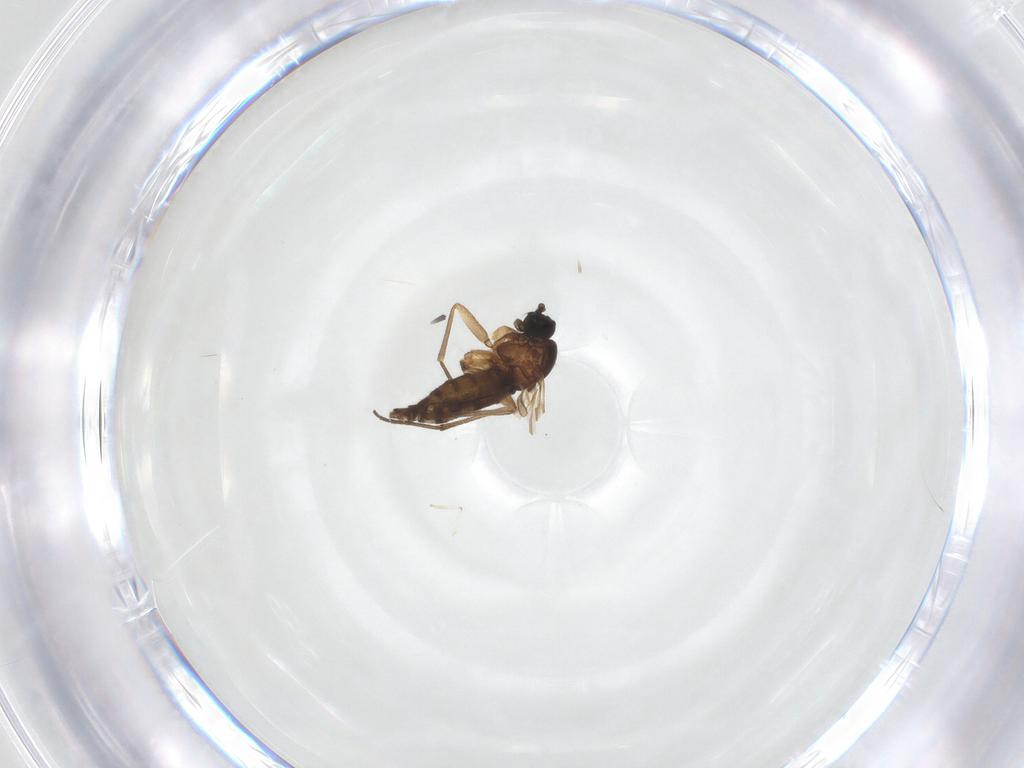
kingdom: Animalia
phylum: Arthropoda
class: Insecta
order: Diptera
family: Sciaridae
